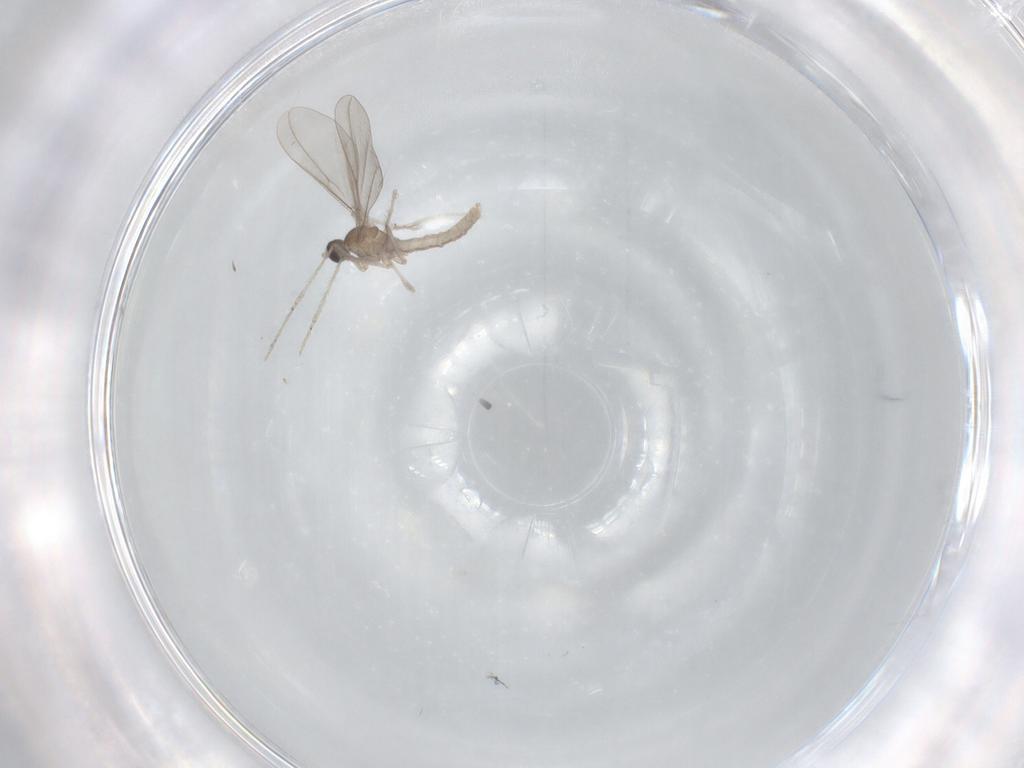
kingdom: Animalia
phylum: Arthropoda
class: Insecta
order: Diptera
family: Cecidomyiidae
